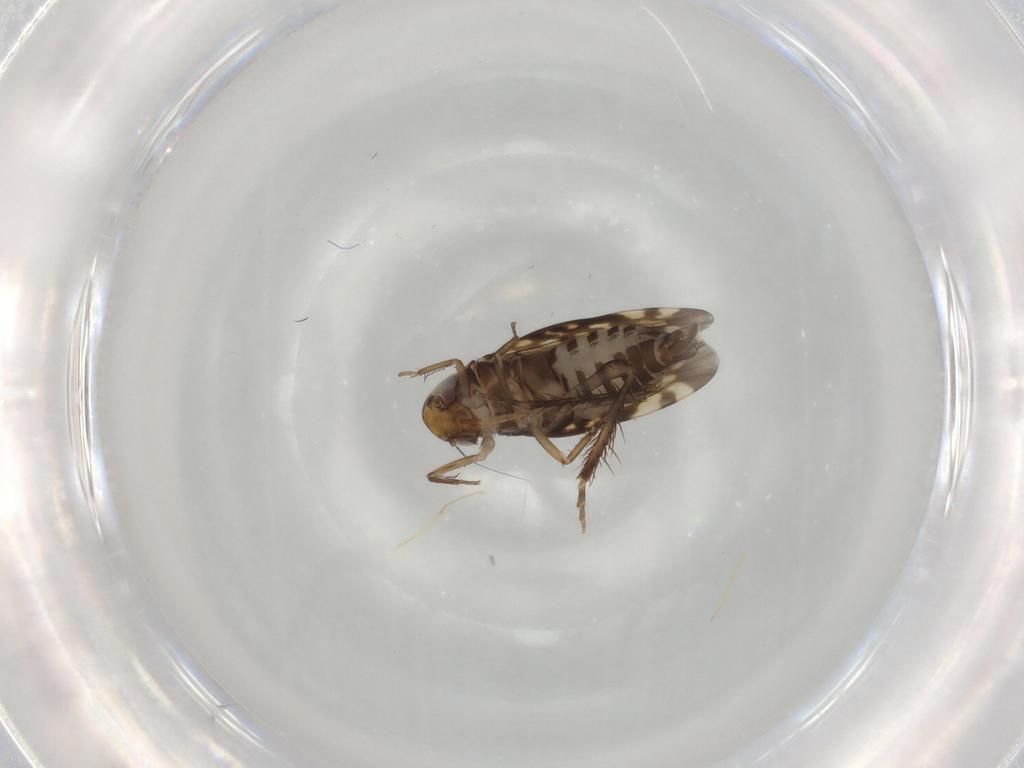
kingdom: Animalia
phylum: Arthropoda
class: Insecta
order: Hemiptera
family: Cicadellidae
